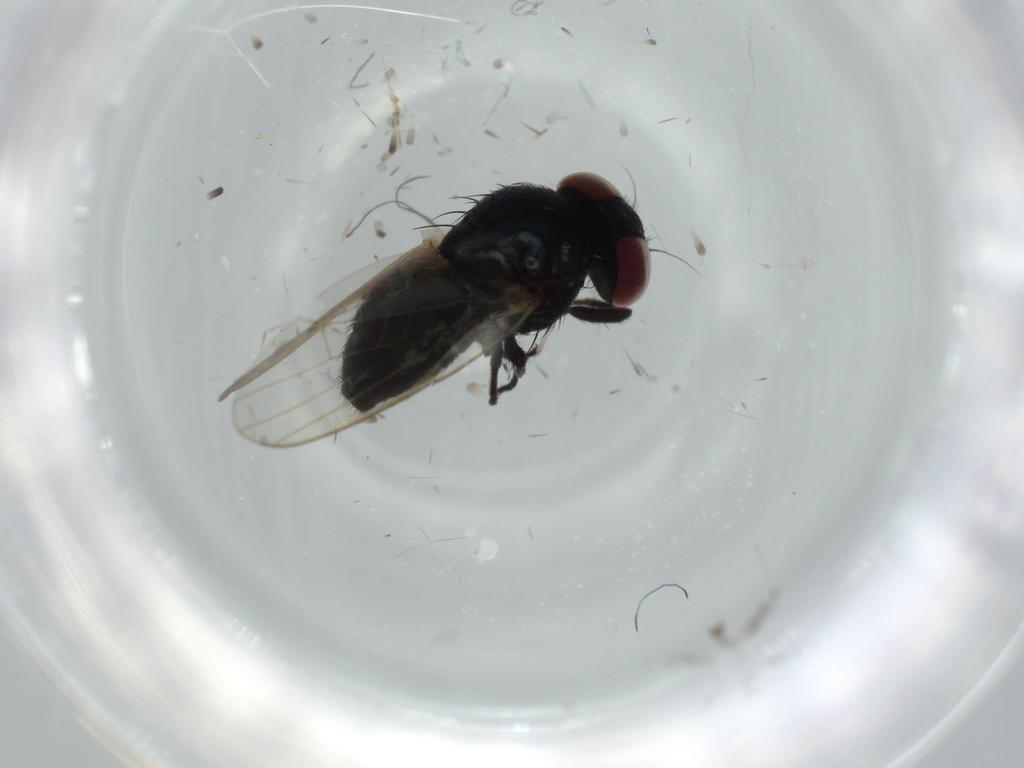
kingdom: Animalia
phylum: Arthropoda
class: Insecta
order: Diptera
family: Lonchaeidae
